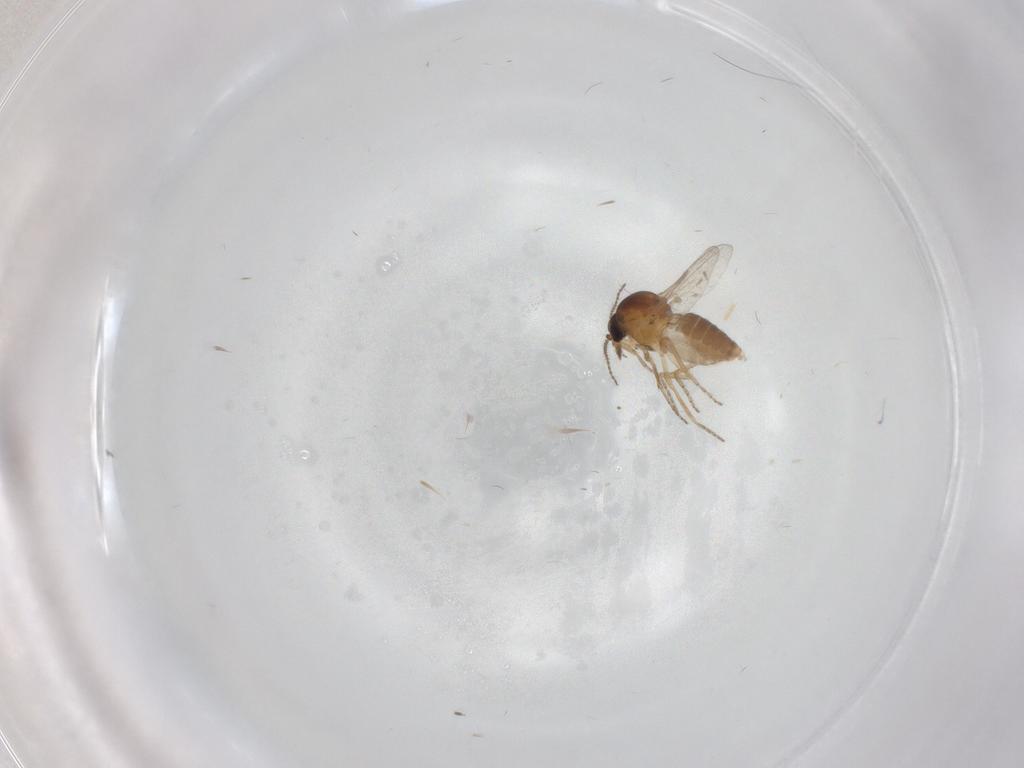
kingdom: Animalia
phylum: Arthropoda
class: Insecta
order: Diptera
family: Ceratopogonidae
